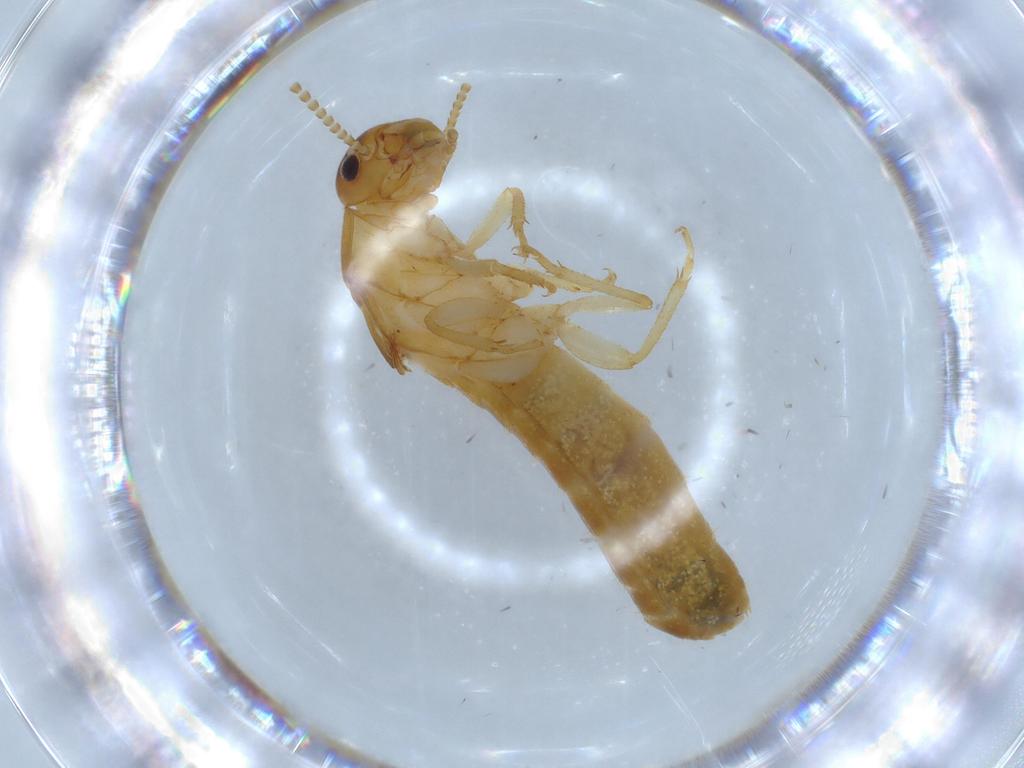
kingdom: Animalia
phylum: Arthropoda
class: Insecta
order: Blattodea
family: Kalotermitidae
